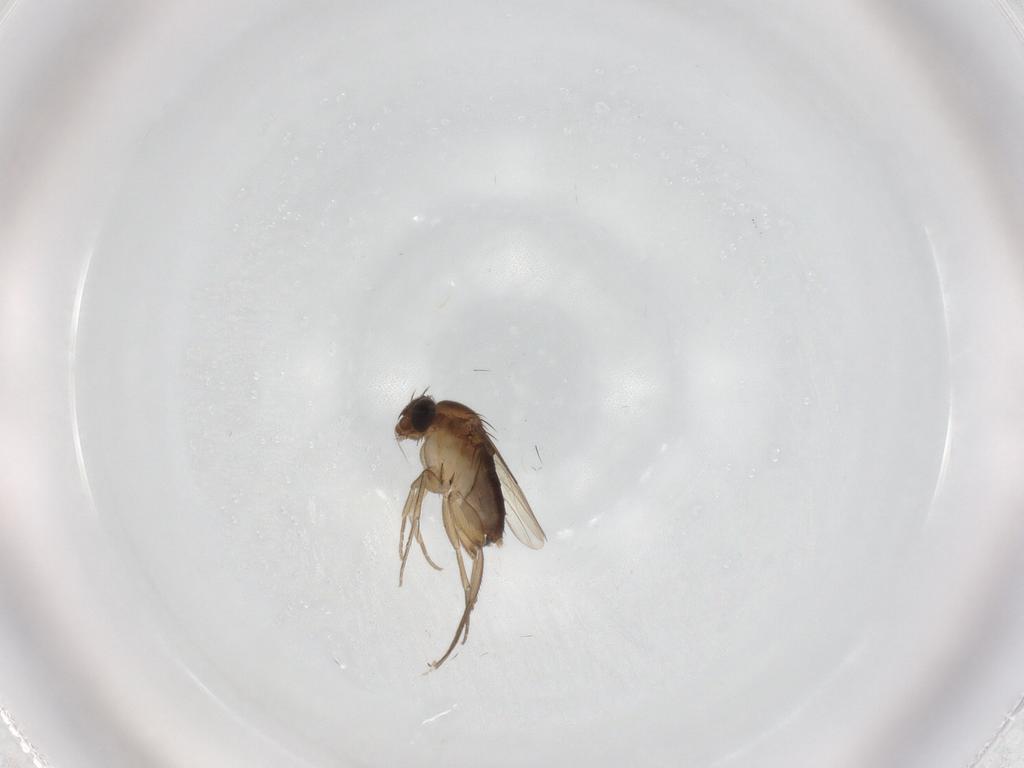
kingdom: Animalia
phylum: Arthropoda
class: Insecta
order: Diptera
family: Phoridae
